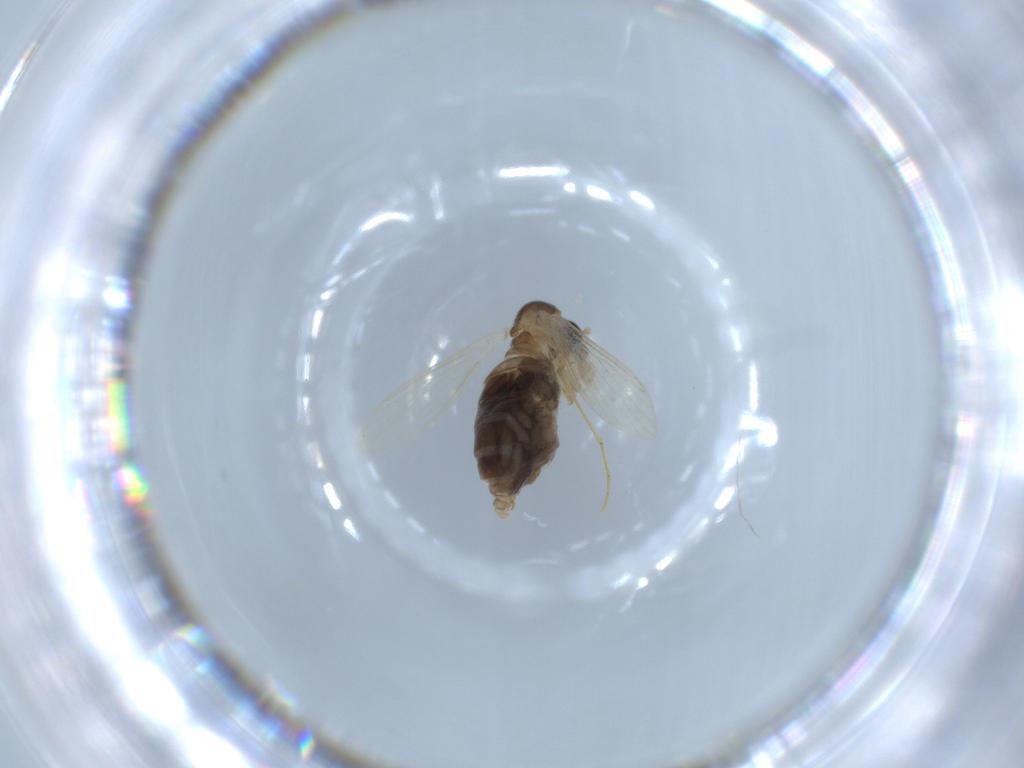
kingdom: Animalia
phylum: Arthropoda
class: Insecta
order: Diptera
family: Psychodidae
